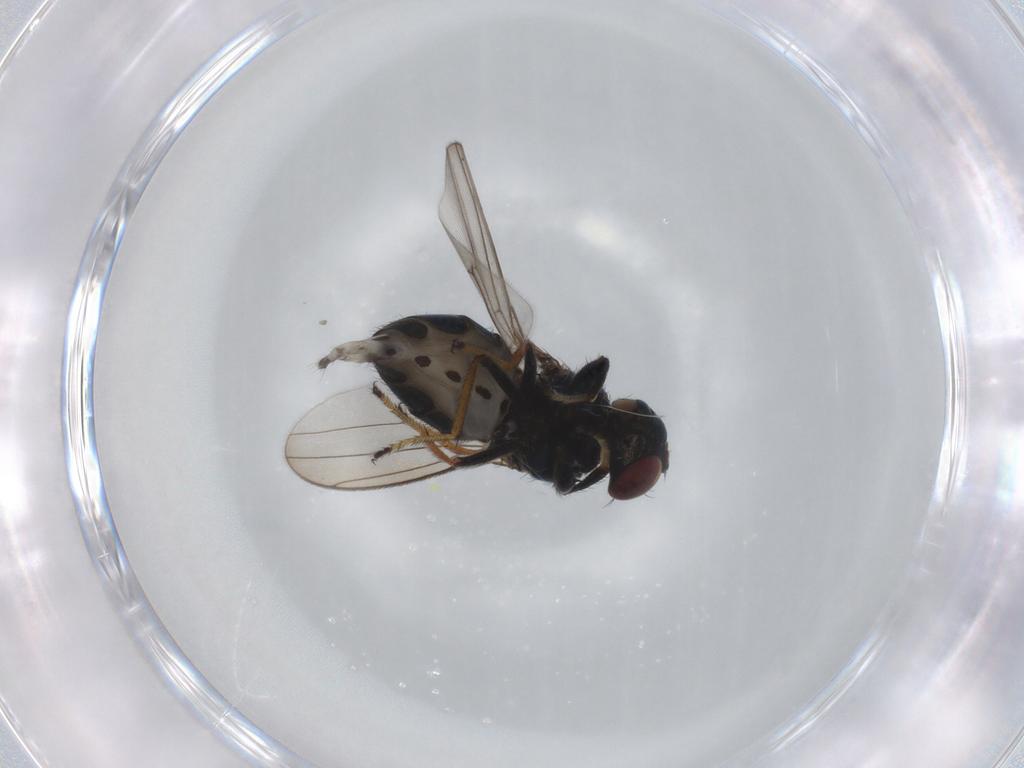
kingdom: Animalia
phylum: Arthropoda
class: Insecta
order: Diptera
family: Ephydridae
